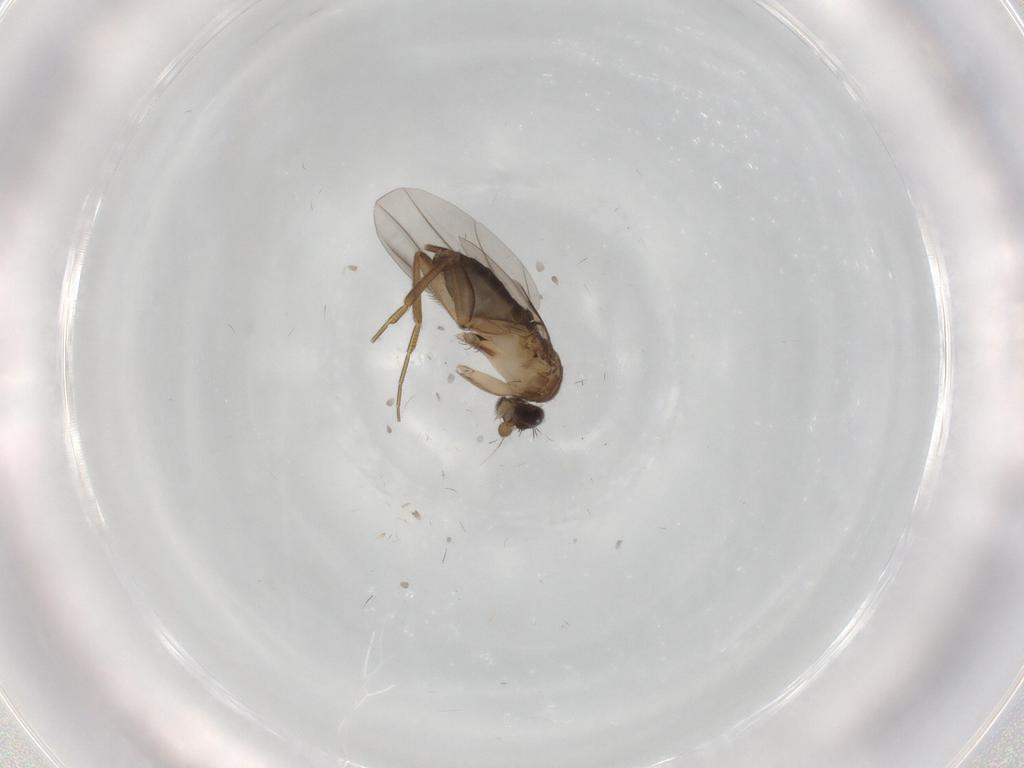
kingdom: Animalia
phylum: Arthropoda
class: Insecta
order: Diptera
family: Phoridae
